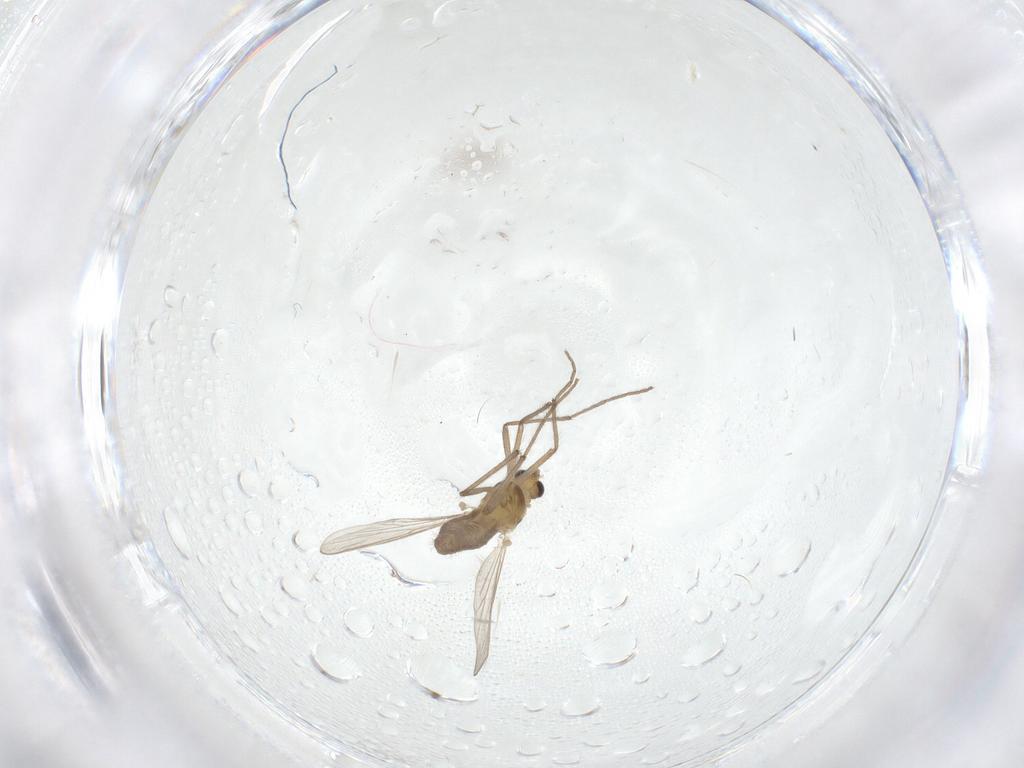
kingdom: Animalia
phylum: Arthropoda
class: Insecta
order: Diptera
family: Chironomidae
